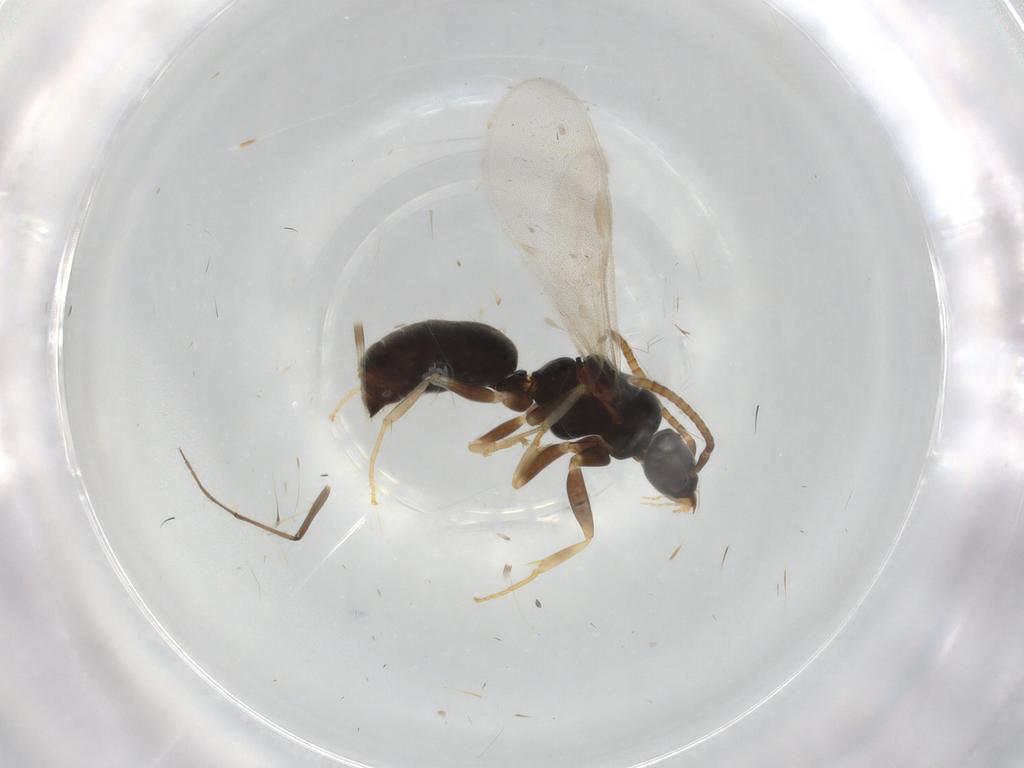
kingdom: Animalia
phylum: Arthropoda
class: Insecta
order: Hymenoptera
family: Formicidae
